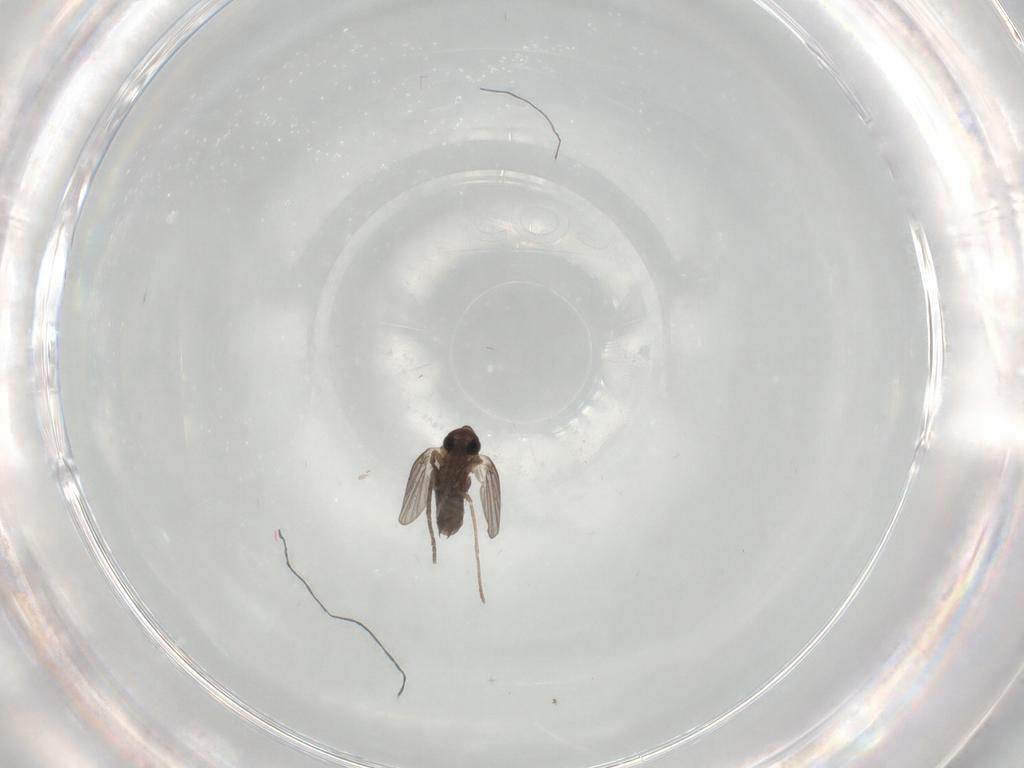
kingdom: Animalia
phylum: Arthropoda
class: Insecta
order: Diptera
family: Sciaridae
